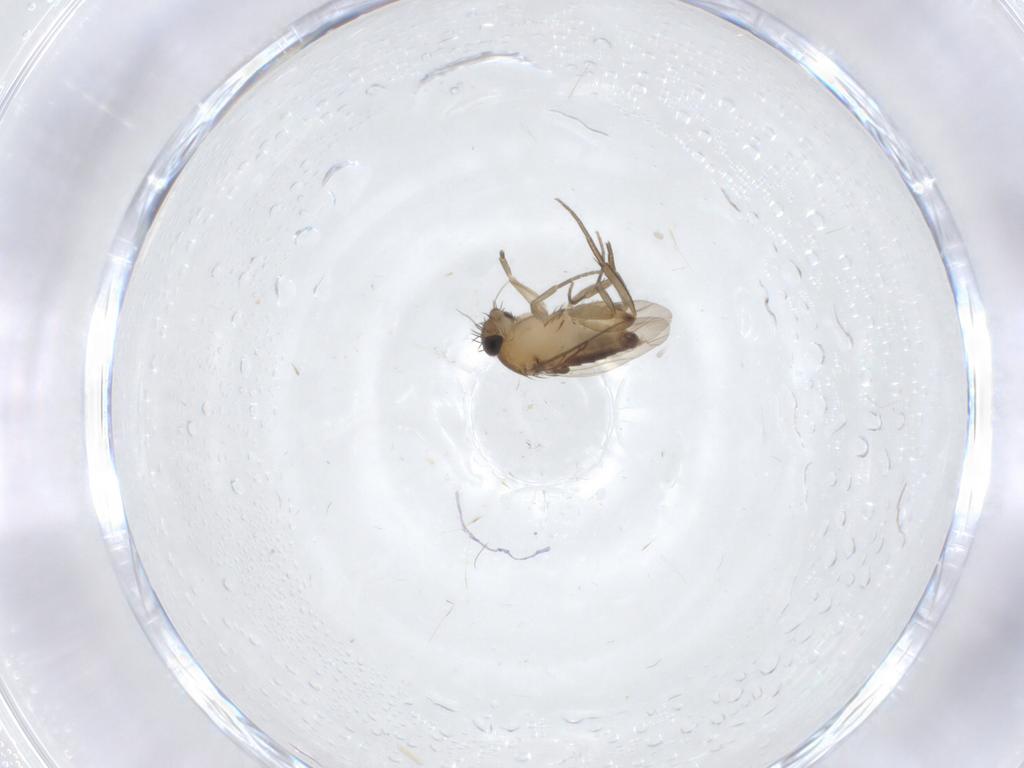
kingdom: Animalia
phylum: Arthropoda
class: Insecta
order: Diptera
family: Phoridae
